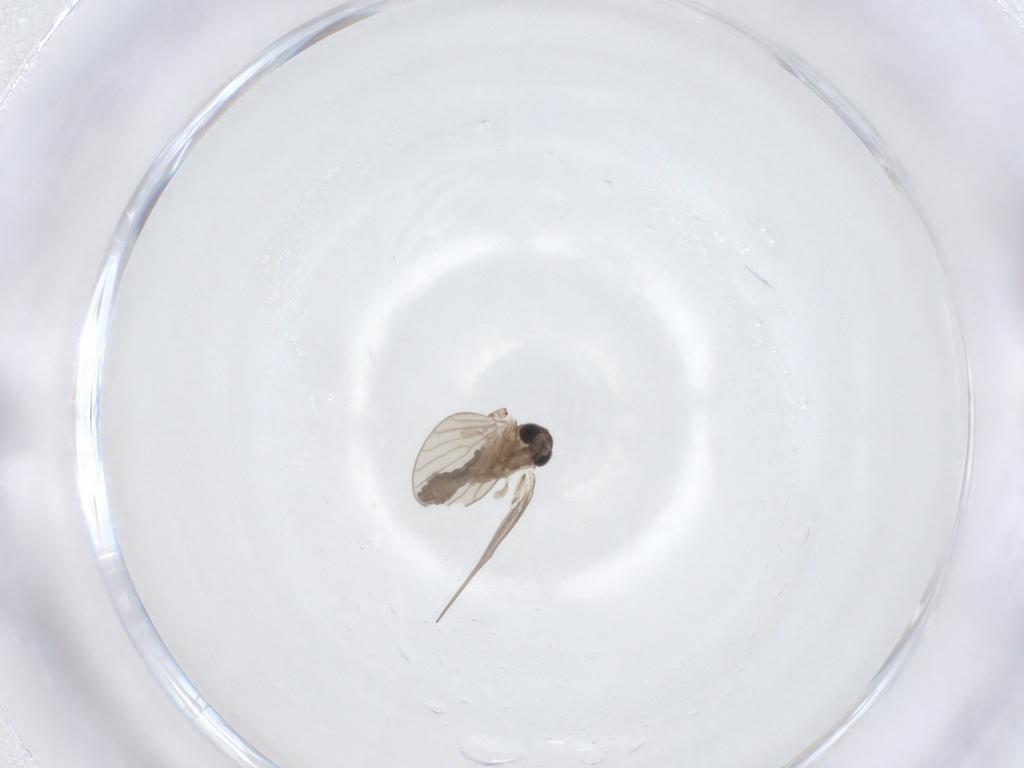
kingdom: Animalia
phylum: Arthropoda
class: Insecta
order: Diptera
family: Psychodidae
